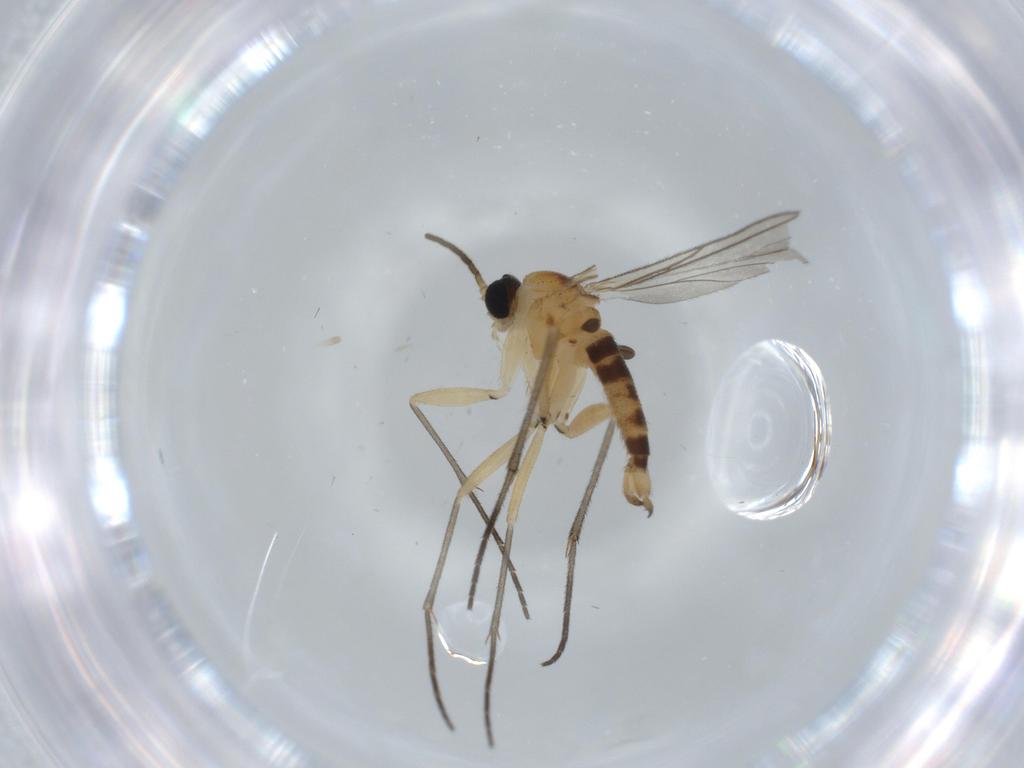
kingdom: Animalia
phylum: Arthropoda
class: Insecta
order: Diptera
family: Sciaridae
